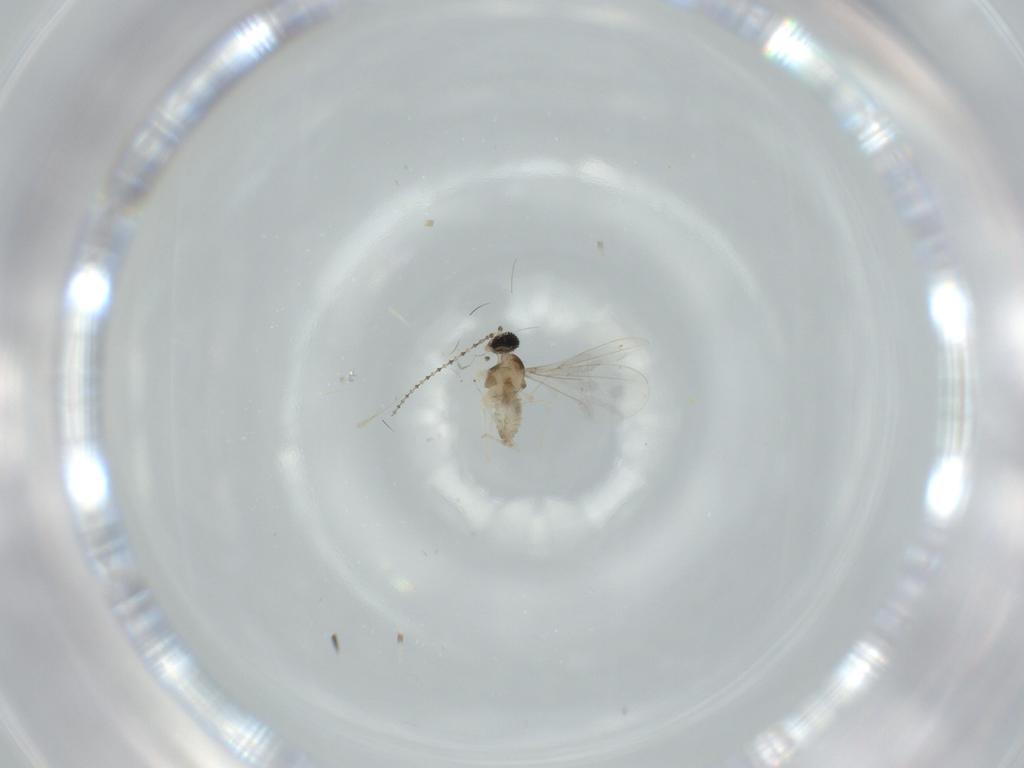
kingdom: Animalia
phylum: Arthropoda
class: Insecta
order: Diptera
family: Cecidomyiidae
